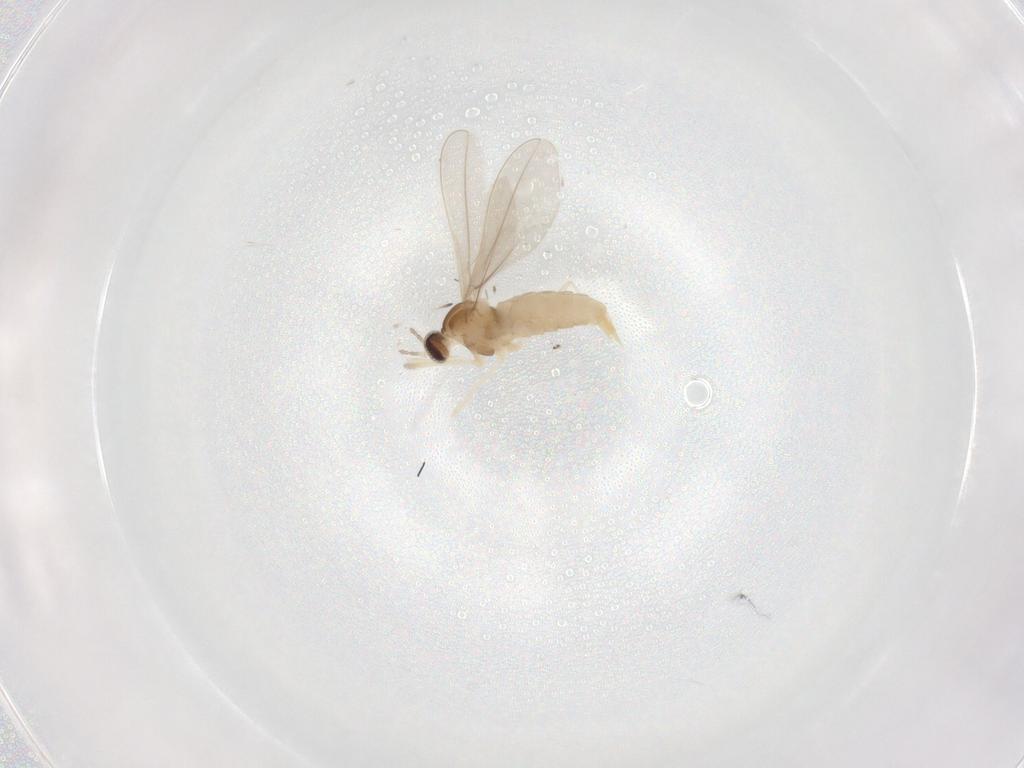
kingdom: Animalia
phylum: Arthropoda
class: Insecta
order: Diptera
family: Cecidomyiidae
